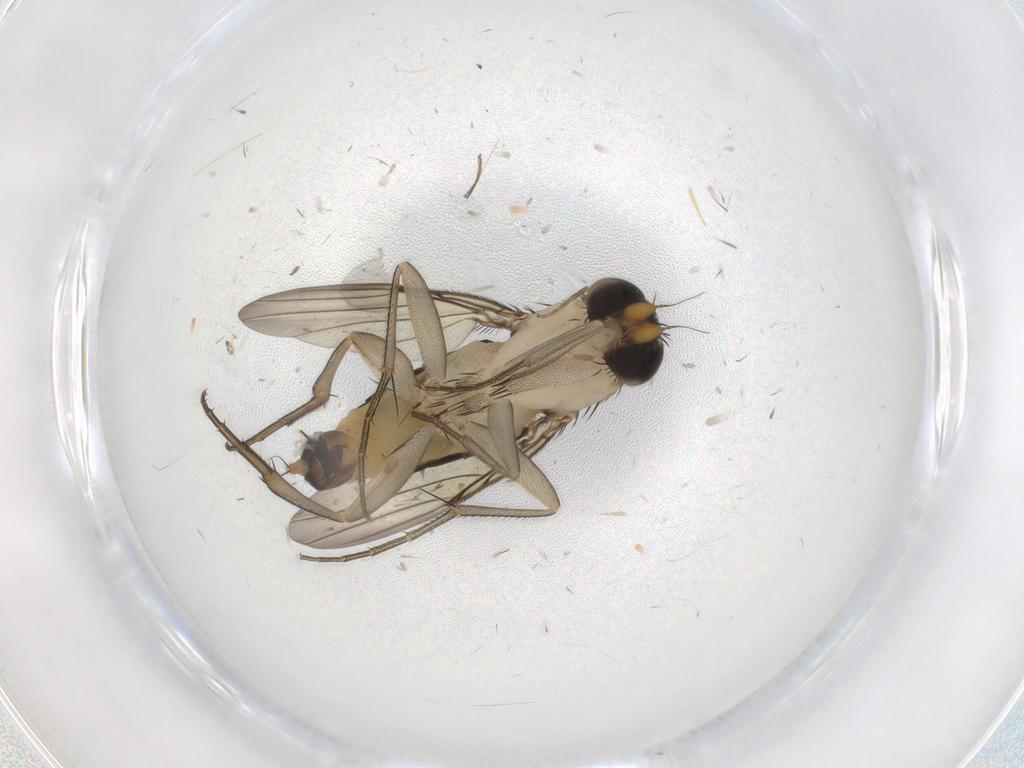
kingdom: Animalia
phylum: Arthropoda
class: Insecta
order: Diptera
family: Phoridae
